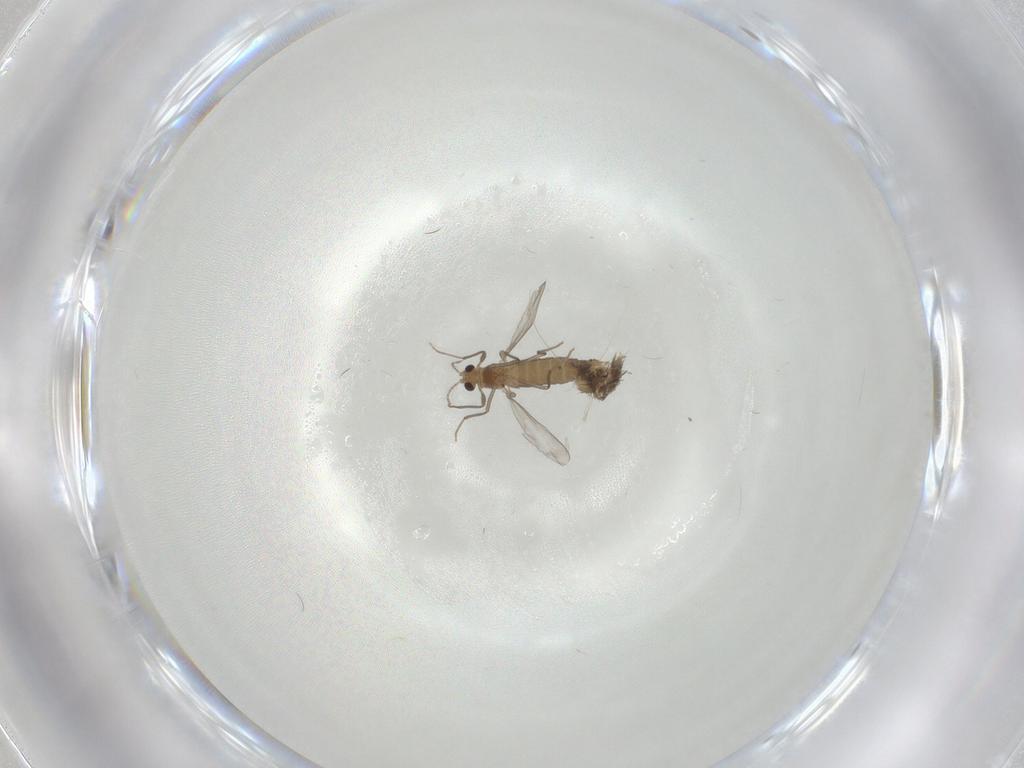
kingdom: Animalia
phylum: Arthropoda
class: Insecta
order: Diptera
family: Chironomidae
